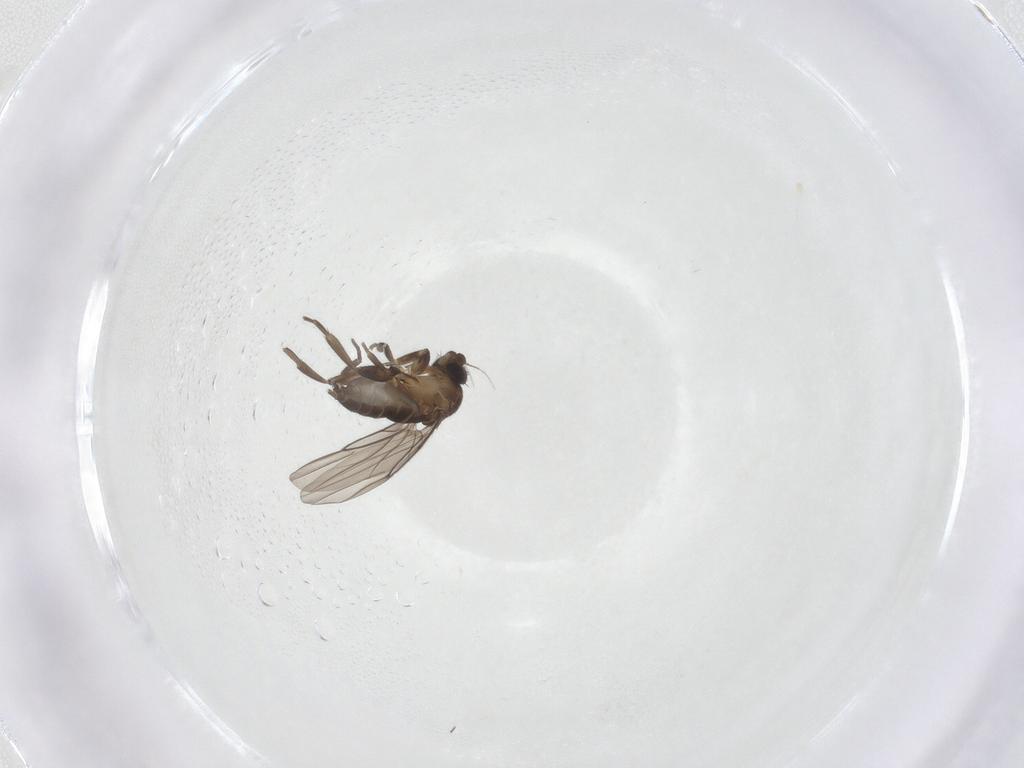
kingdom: Animalia
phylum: Arthropoda
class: Insecta
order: Diptera
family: Phoridae
